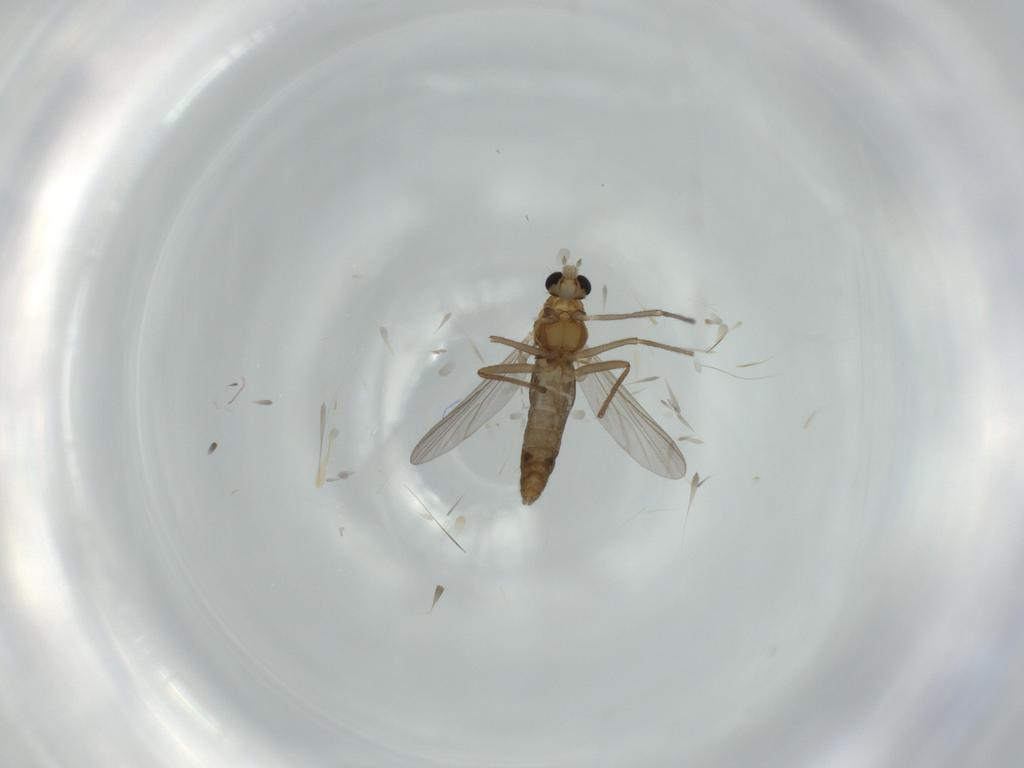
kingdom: Animalia
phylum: Arthropoda
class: Insecta
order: Diptera
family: Chironomidae
